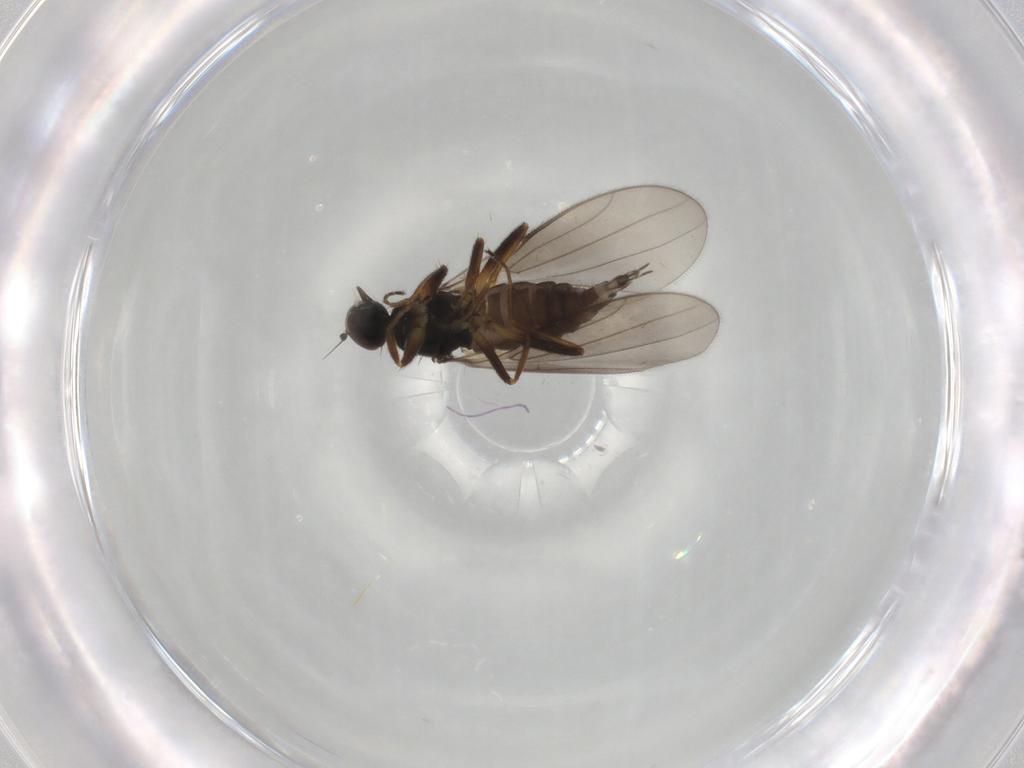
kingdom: Animalia
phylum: Arthropoda
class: Insecta
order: Diptera
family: Hybotidae
